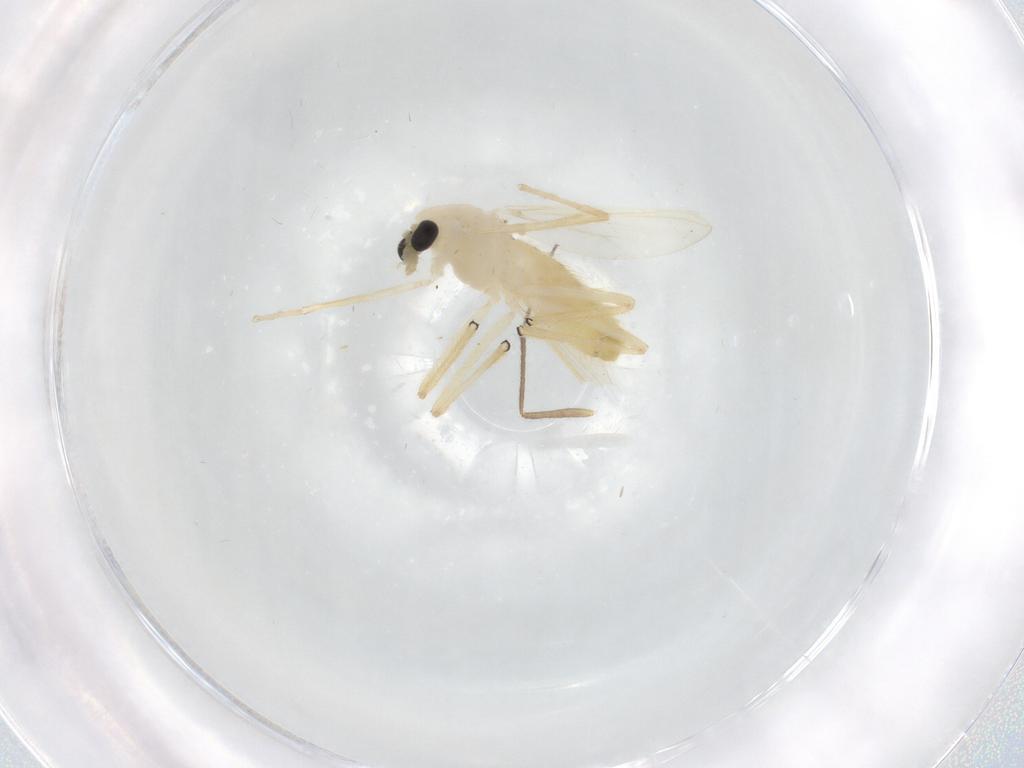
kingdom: Animalia
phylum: Arthropoda
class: Insecta
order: Diptera
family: Chironomidae
